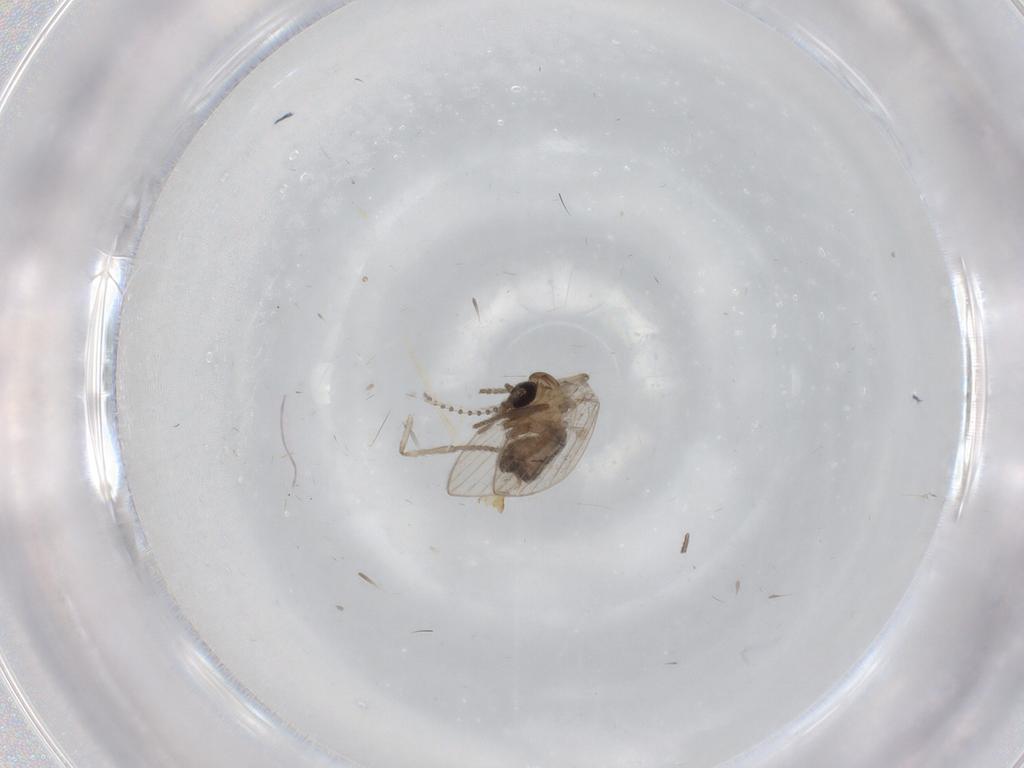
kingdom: Animalia
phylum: Arthropoda
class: Insecta
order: Diptera
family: Psychodidae
